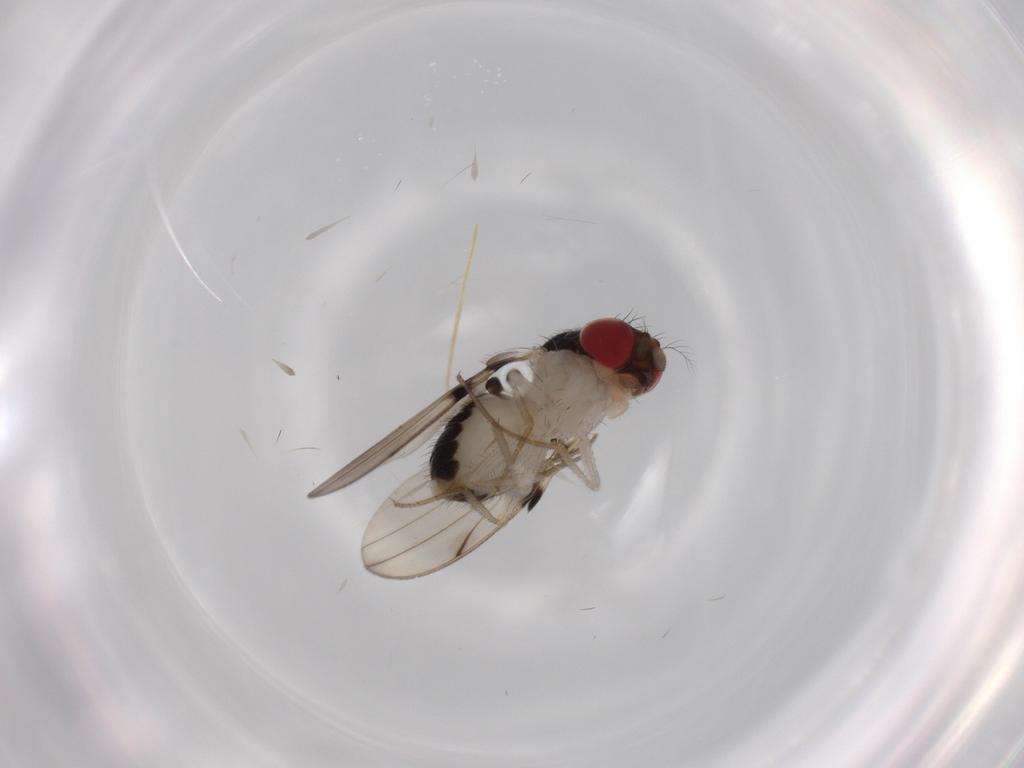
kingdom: Animalia
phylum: Arthropoda
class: Insecta
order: Diptera
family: Drosophilidae
